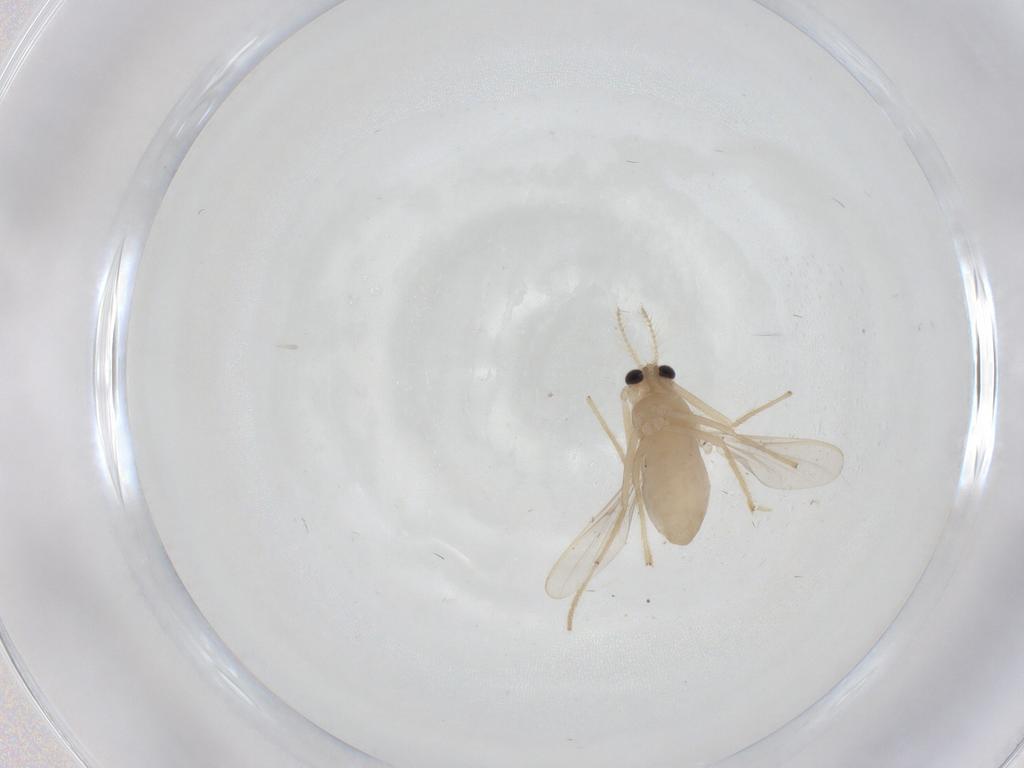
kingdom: Animalia
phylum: Arthropoda
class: Insecta
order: Diptera
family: Chironomidae
